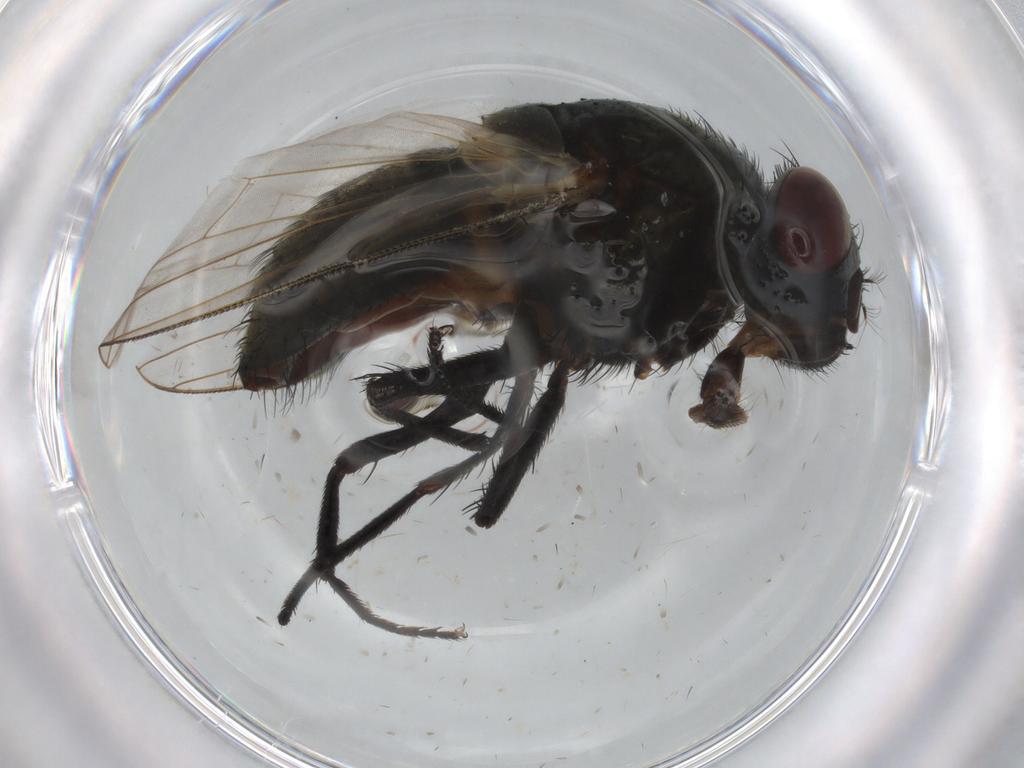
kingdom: Animalia
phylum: Arthropoda
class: Insecta
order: Diptera
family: Muscidae
